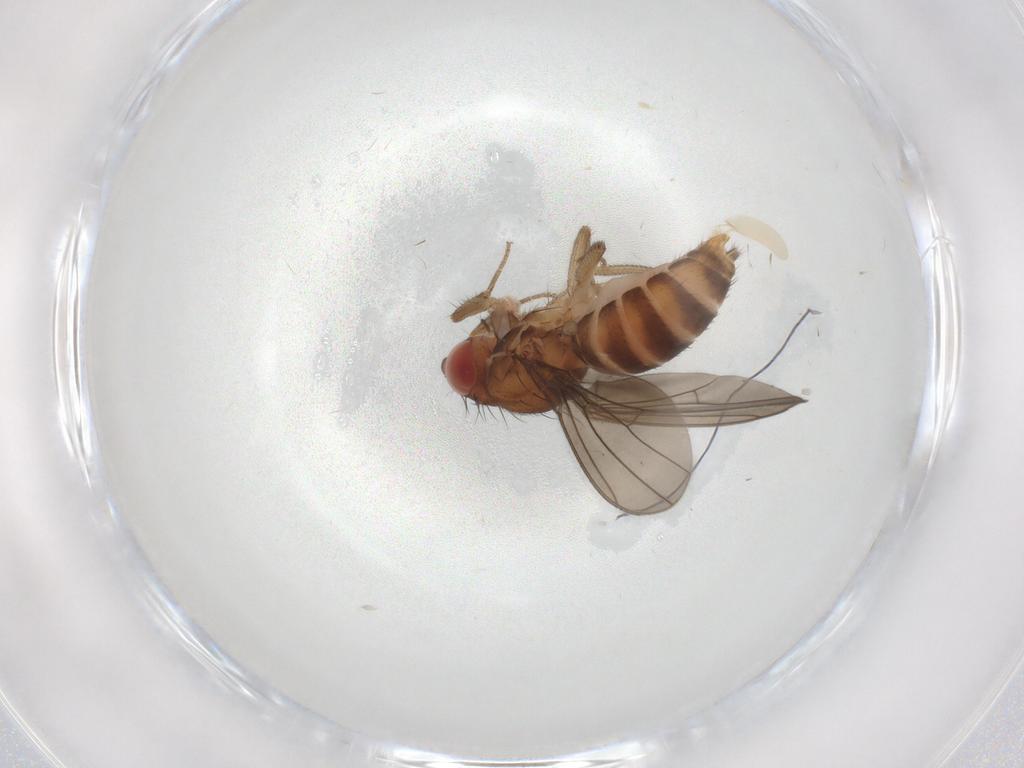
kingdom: Animalia
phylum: Arthropoda
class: Insecta
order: Diptera
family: Drosophilidae
